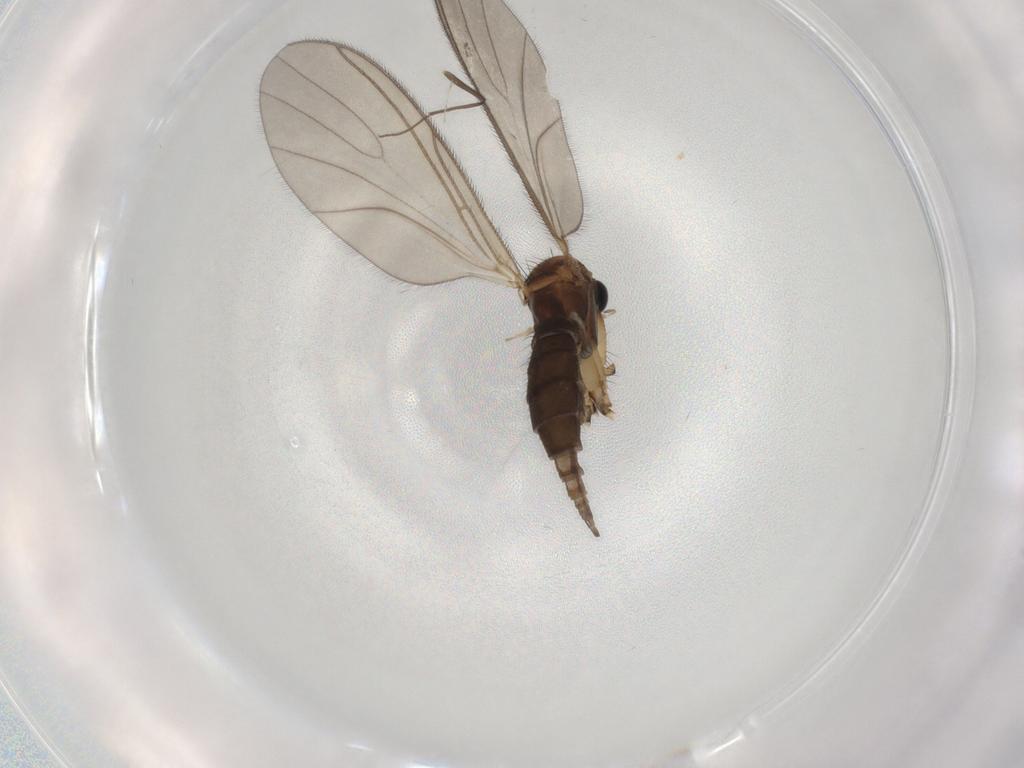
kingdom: Animalia
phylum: Arthropoda
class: Insecta
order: Diptera
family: Sciaridae
